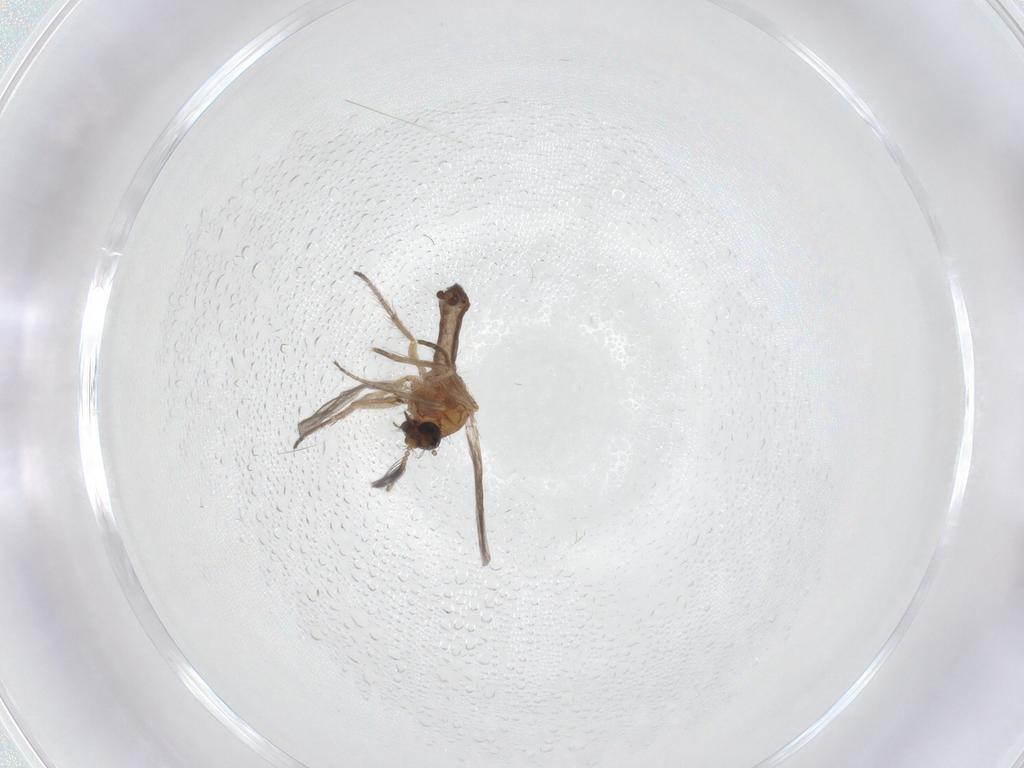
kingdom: Animalia
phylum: Arthropoda
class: Insecta
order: Diptera
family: Ceratopogonidae
